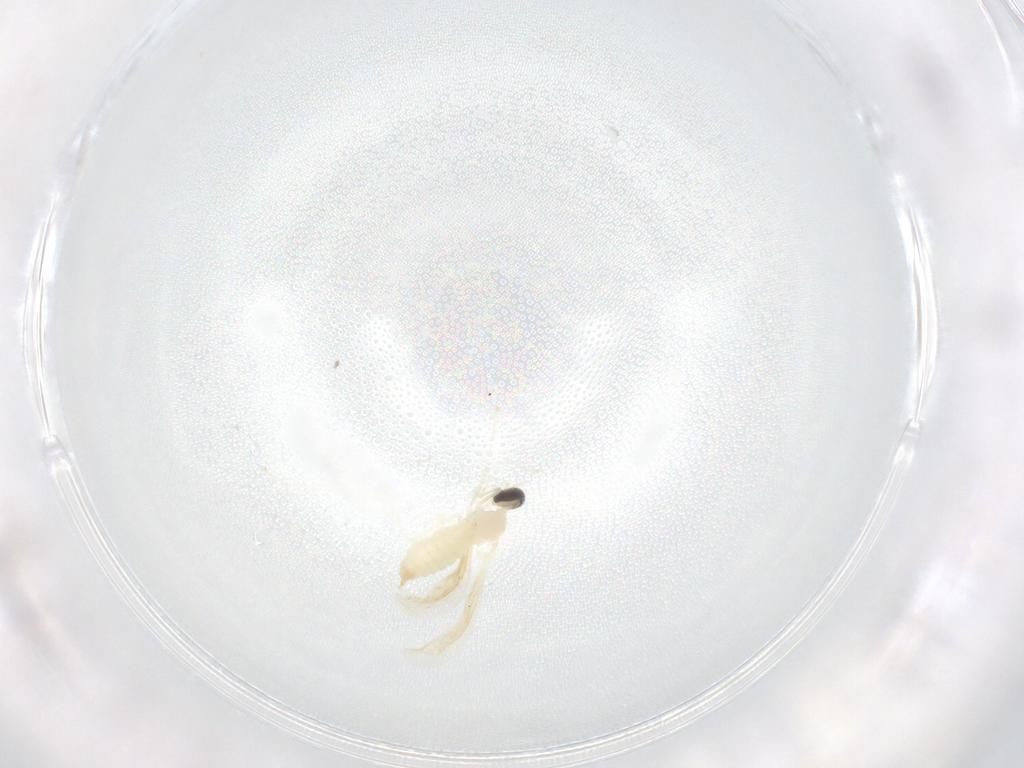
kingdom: Animalia
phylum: Arthropoda
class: Insecta
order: Diptera
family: Cecidomyiidae
